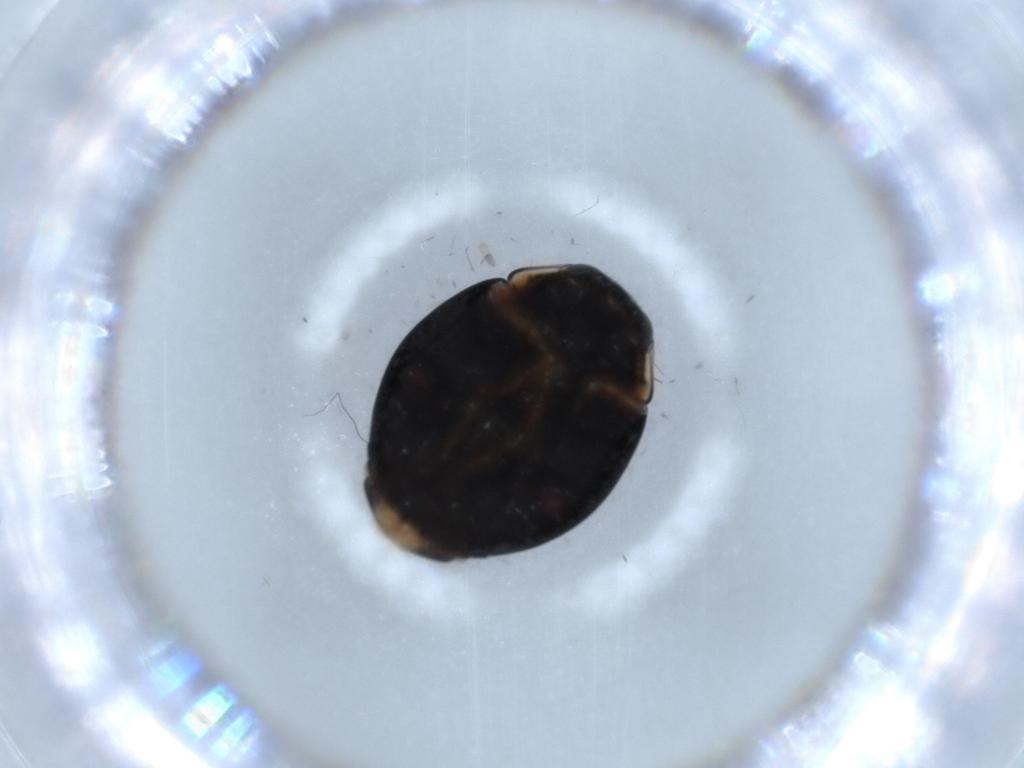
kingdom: Animalia
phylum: Arthropoda
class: Insecta
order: Coleoptera
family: Coccinellidae
